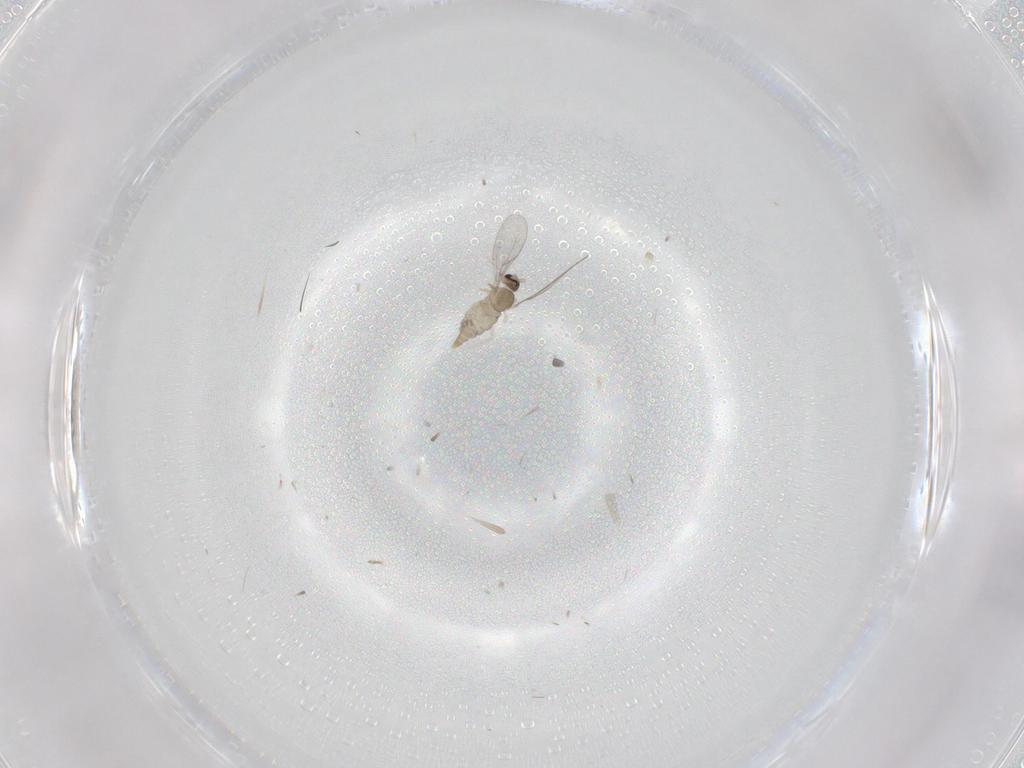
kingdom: Animalia
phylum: Arthropoda
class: Insecta
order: Diptera
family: Cecidomyiidae
